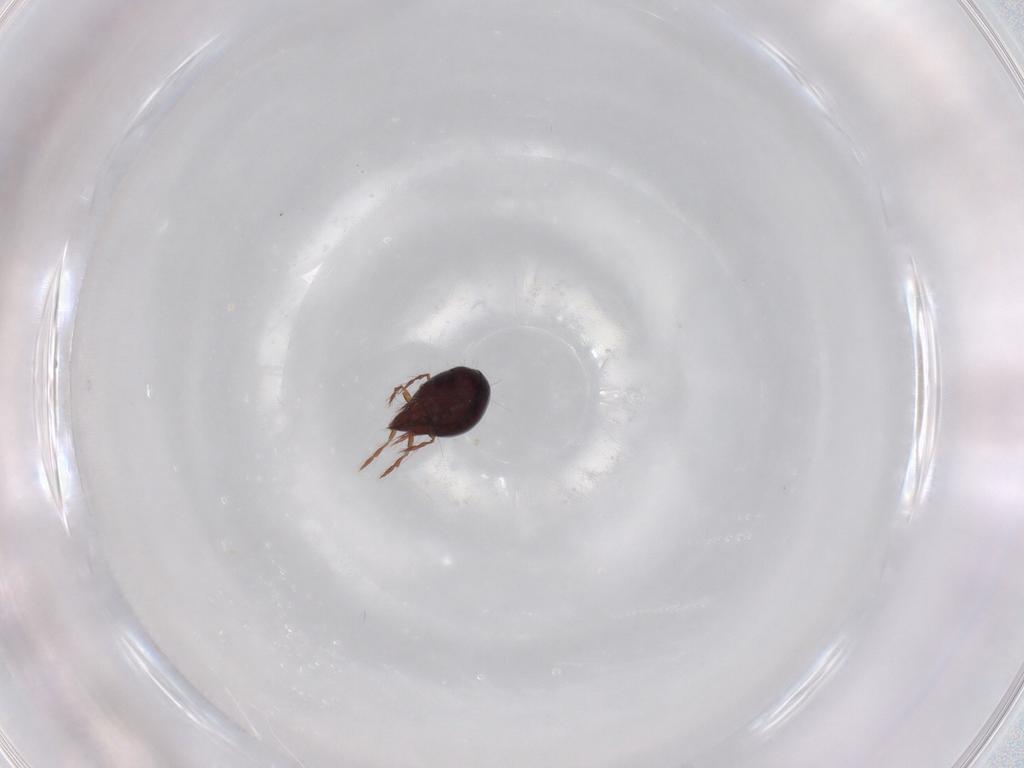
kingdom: Animalia
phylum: Arthropoda
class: Arachnida
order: Sarcoptiformes
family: Ceratoppiidae
